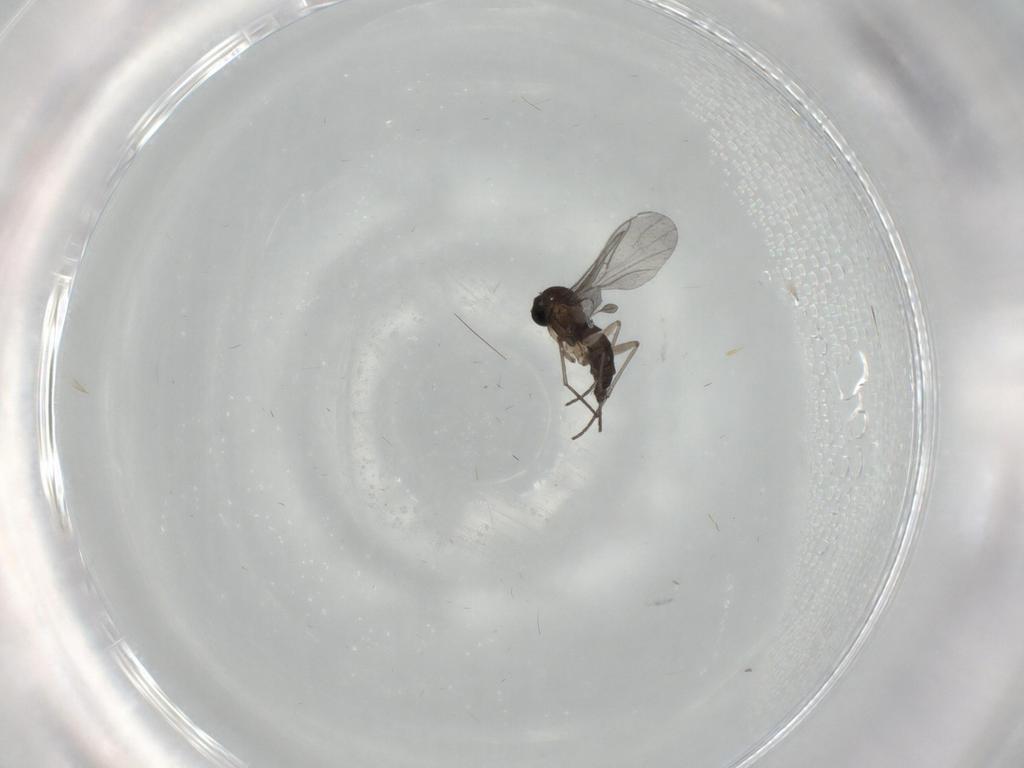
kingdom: Animalia
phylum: Arthropoda
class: Insecta
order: Diptera
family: Sciaridae
